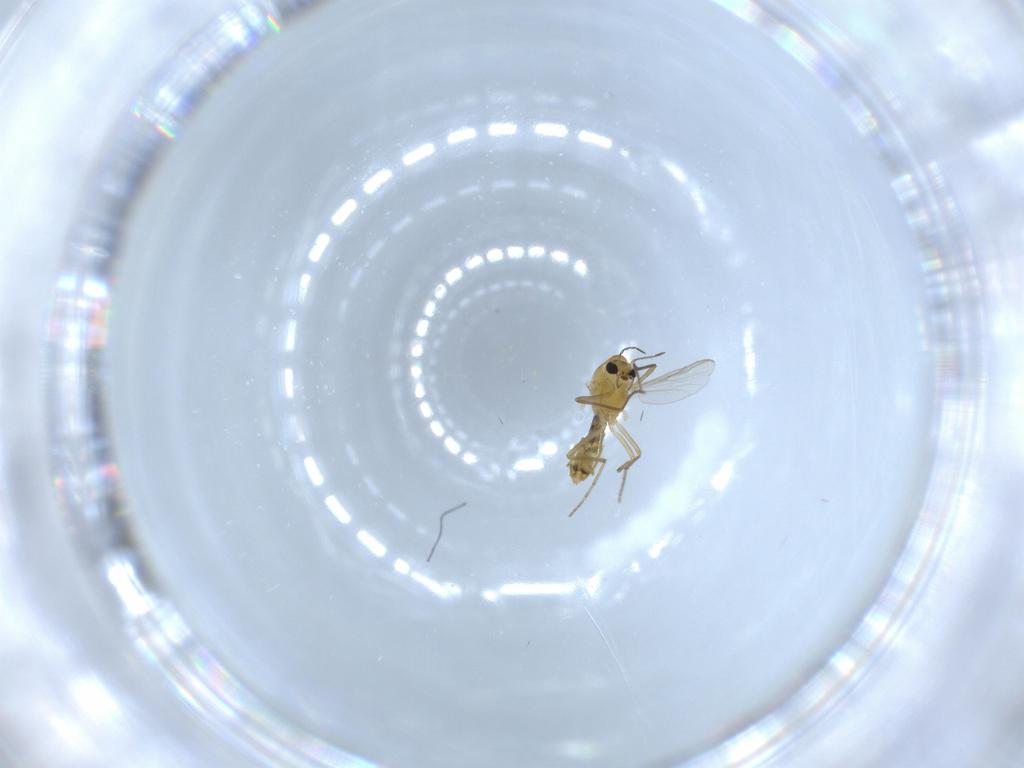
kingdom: Animalia
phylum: Arthropoda
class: Insecta
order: Diptera
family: Chironomidae
